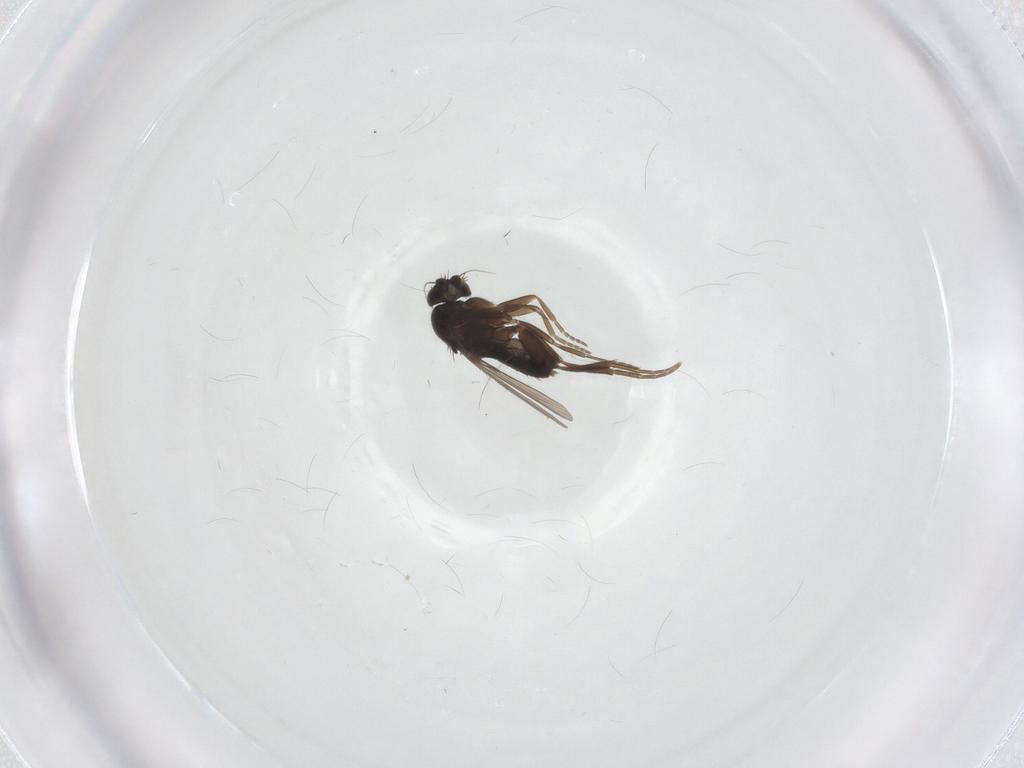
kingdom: Animalia
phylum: Arthropoda
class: Insecta
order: Diptera
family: Phoridae
